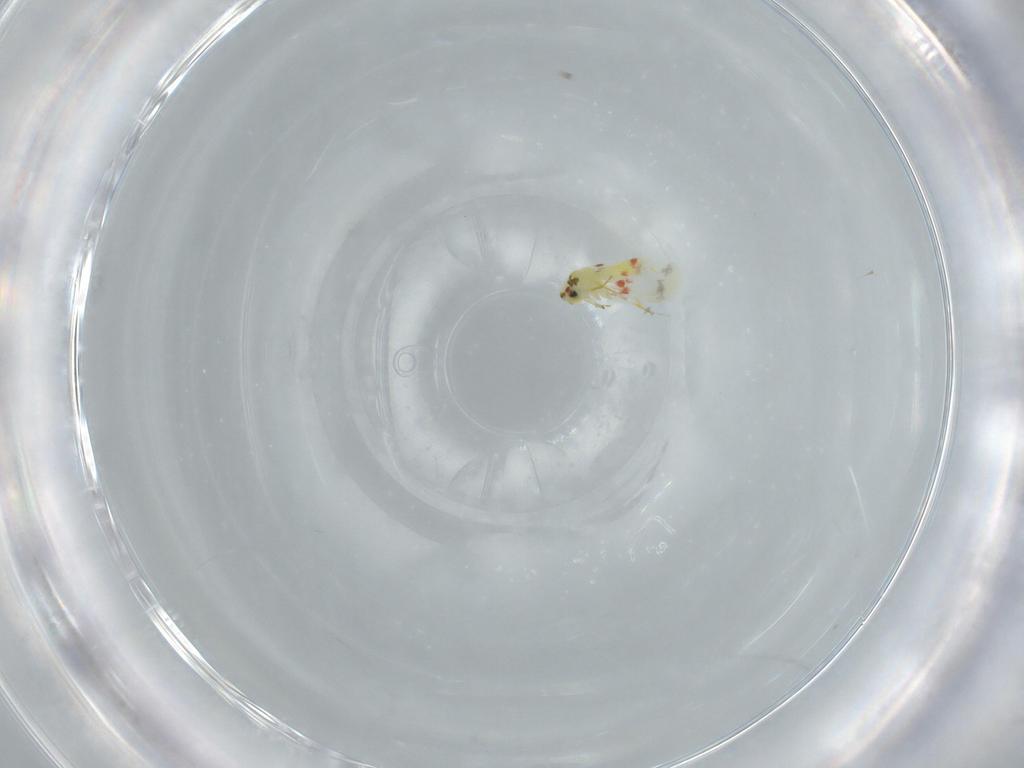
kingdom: Animalia
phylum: Arthropoda
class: Insecta
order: Hemiptera
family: Aleyrodidae
